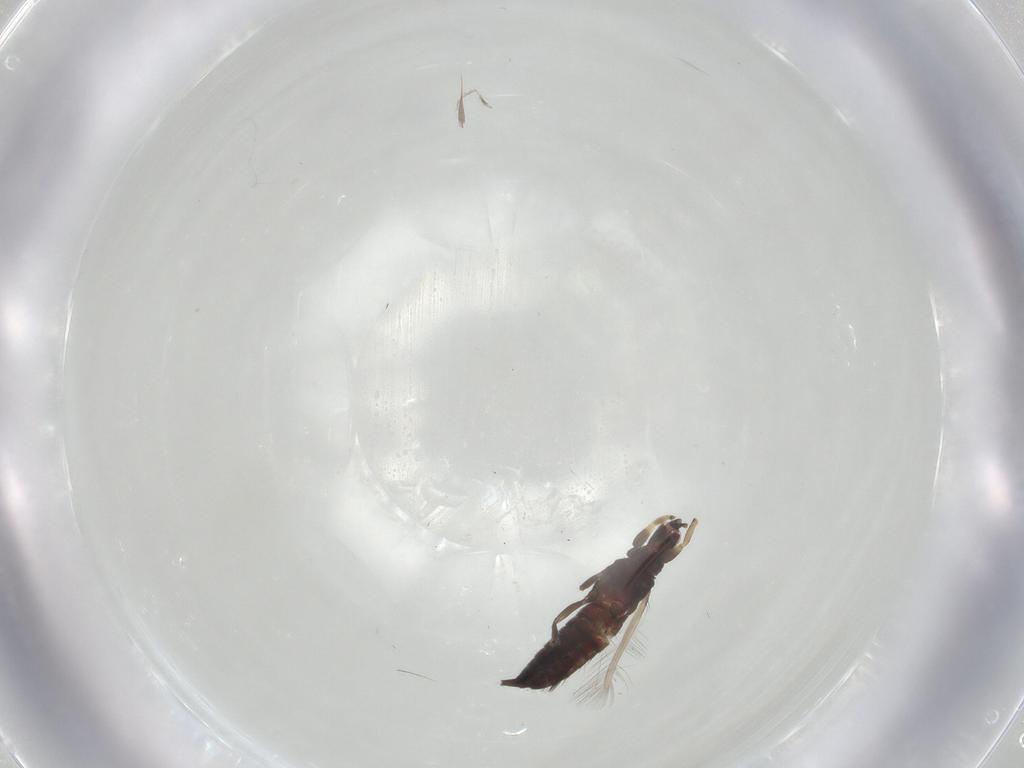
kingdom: Animalia
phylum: Arthropoda
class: Insecta
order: Thysanoptera
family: Phlaeothripidae
